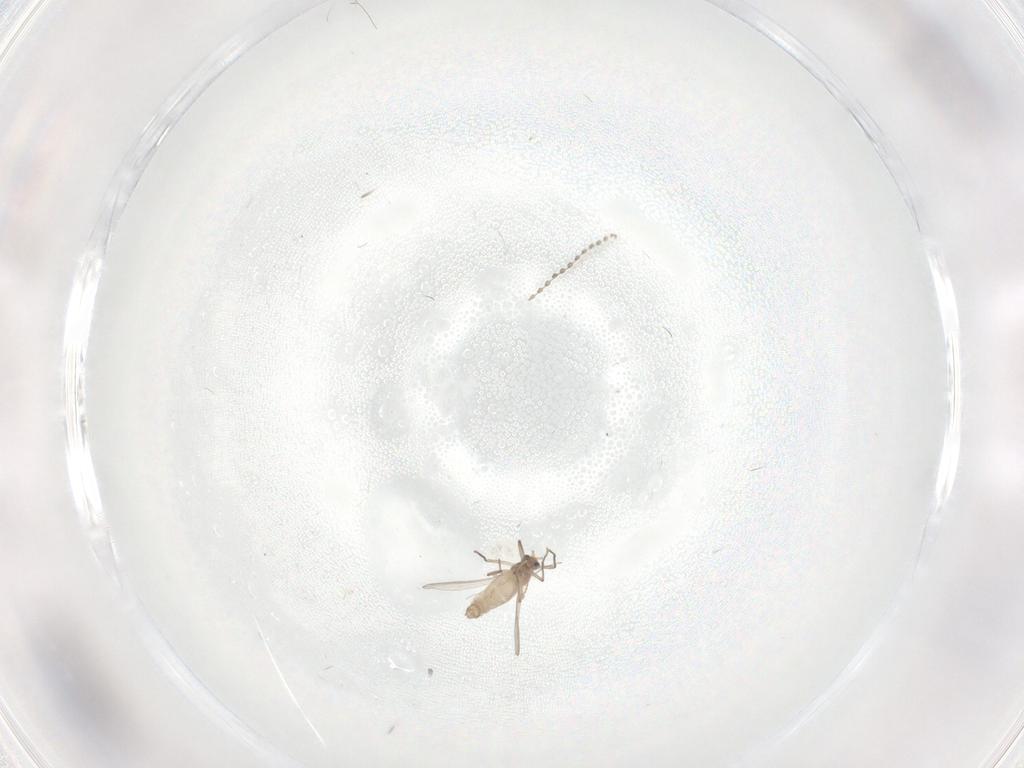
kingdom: Animalia
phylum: Arthropoda
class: Insecta
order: Diptera
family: Chironomidae
